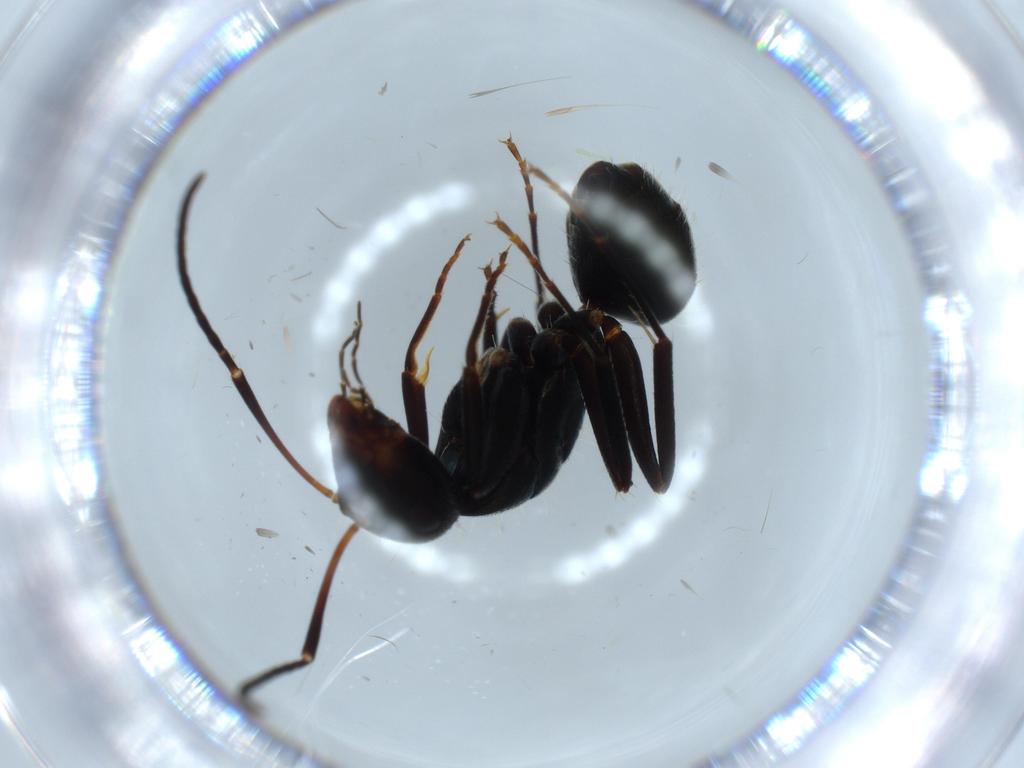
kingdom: Animalia
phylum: Arthropoda
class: Insecta
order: Hymenoptera
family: Formicidae
